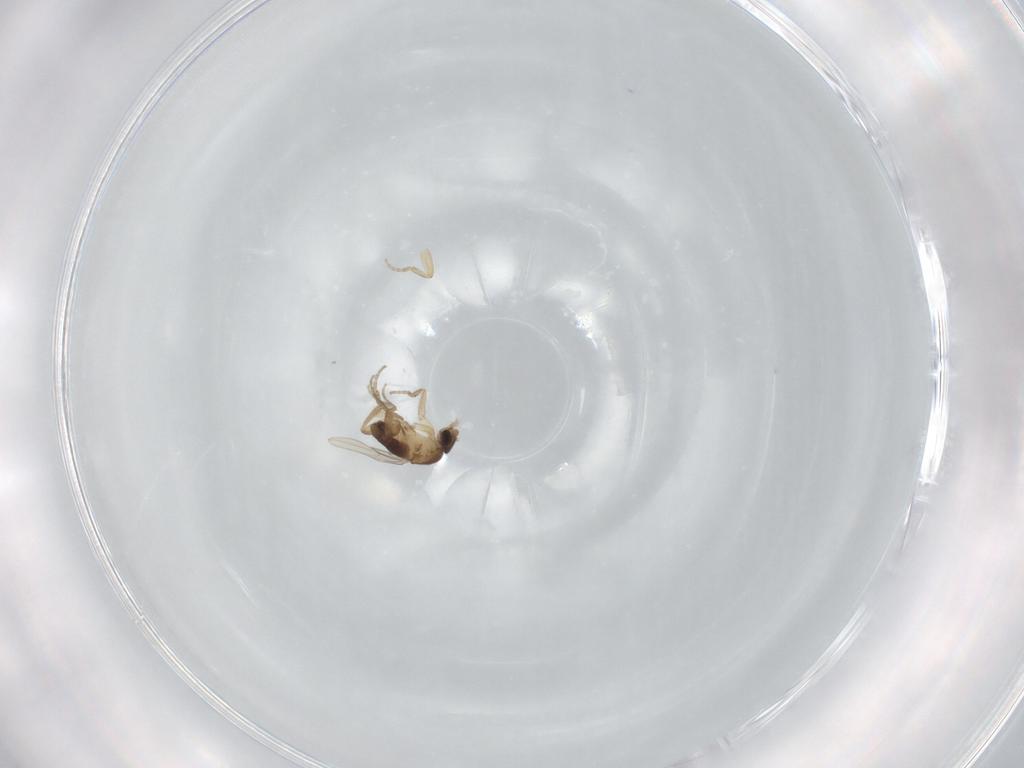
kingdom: Animalia
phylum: Arthropoda
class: Insecta
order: Diptera
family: Phoridae
